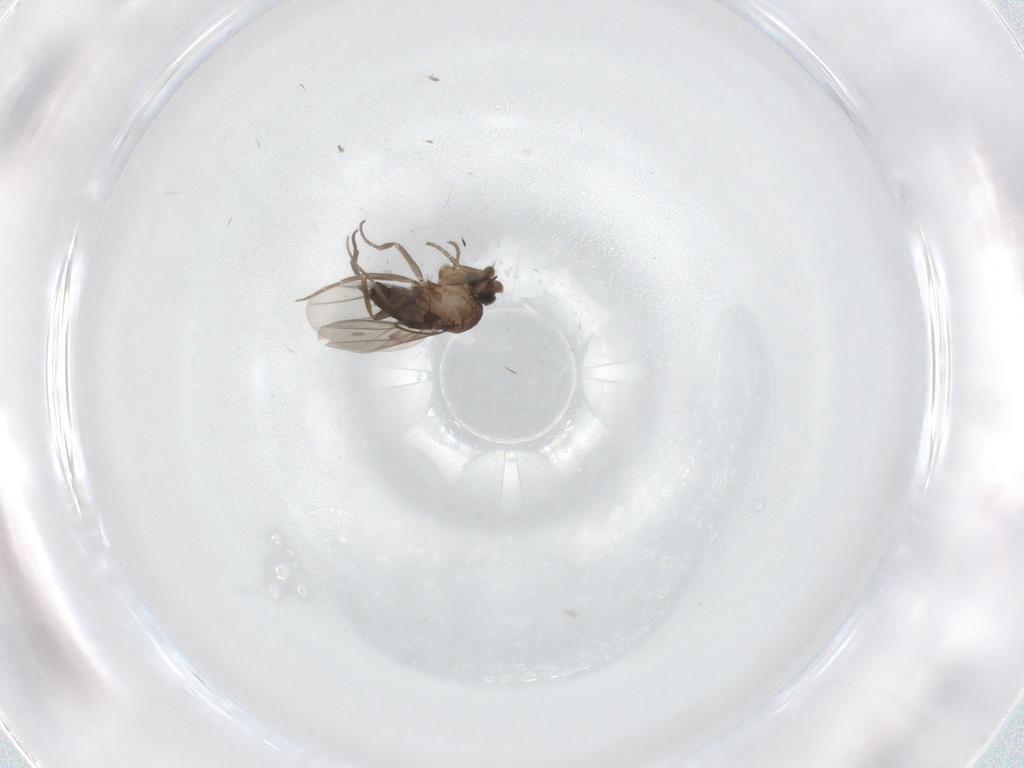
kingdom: Animalia
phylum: Arthropoda
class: Insecta
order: Diptera
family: Phoridae
